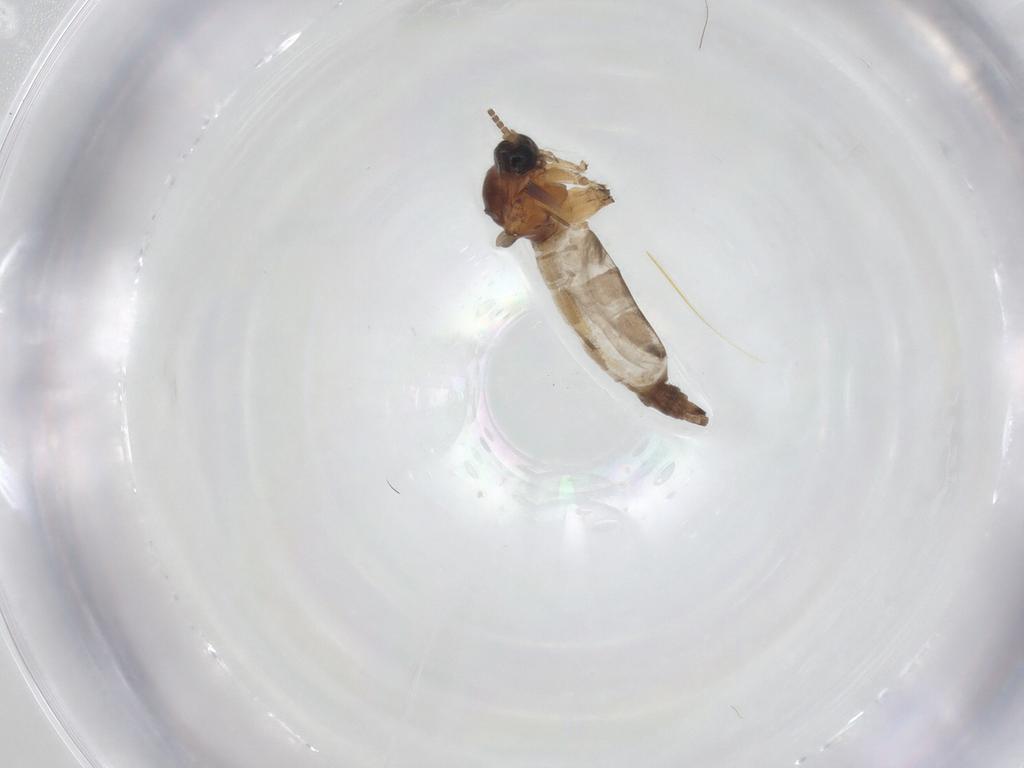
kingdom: Animalia
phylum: Arthropoda
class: Insecta
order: Diptera
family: Sciaridae
